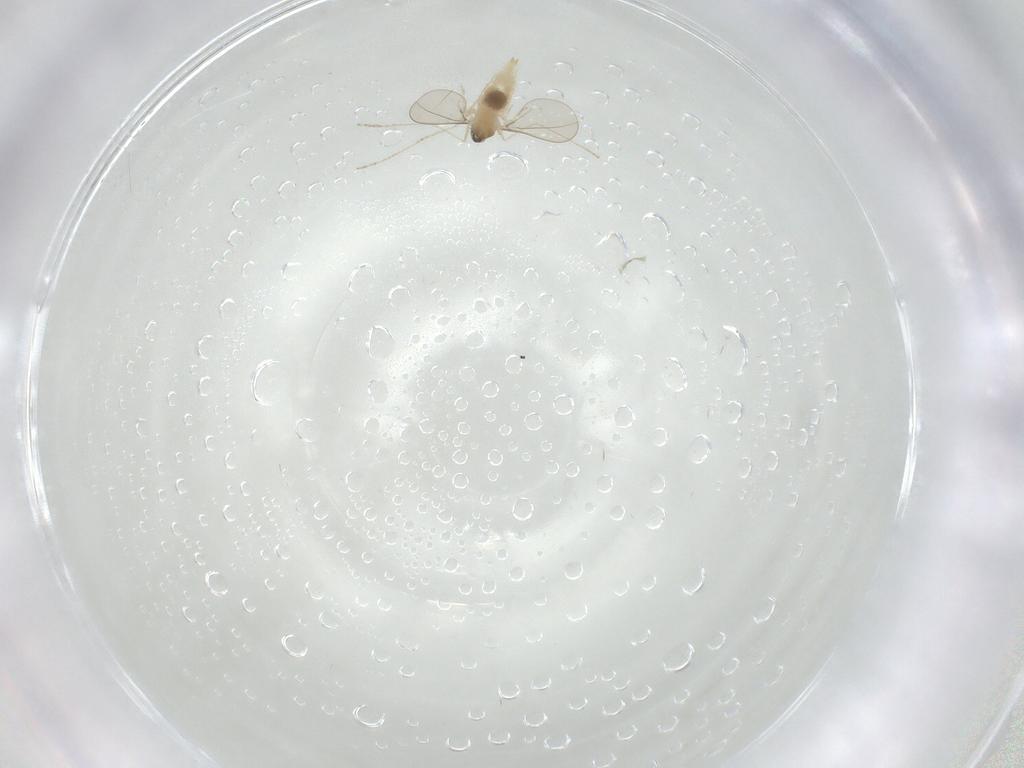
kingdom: Animalia
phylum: Arthropoda
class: Insecta
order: Diptera
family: Cecidomyiidae
